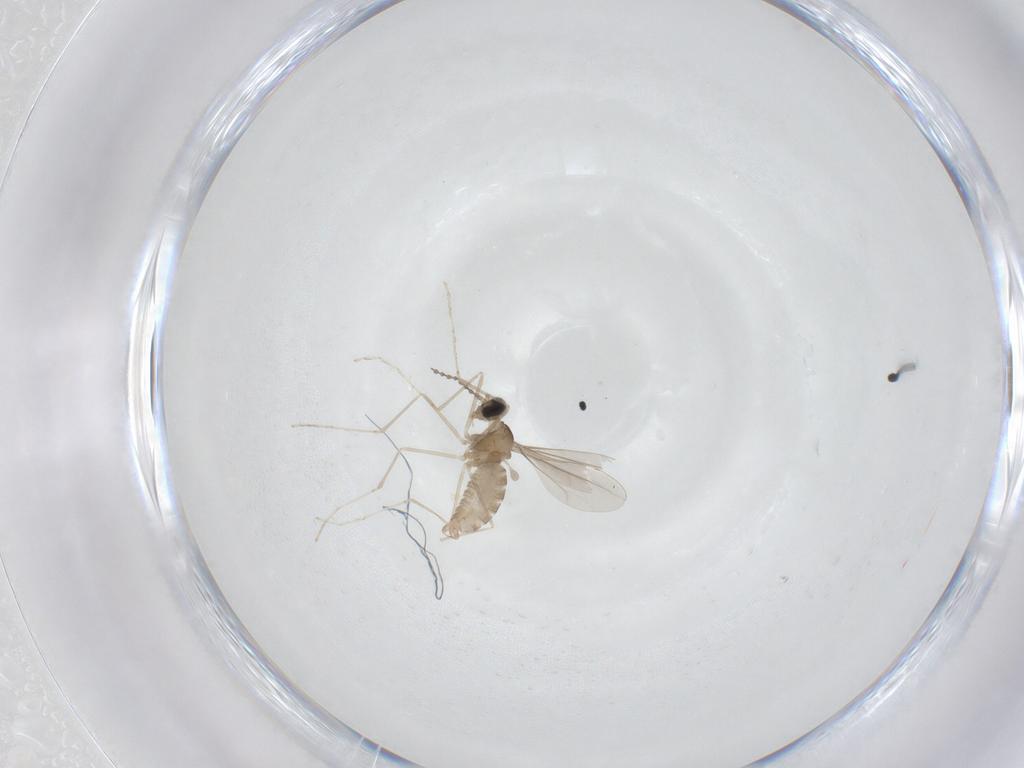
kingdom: Animalia
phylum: Arthropoda
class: Insecta
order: Diptera
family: Cecidomyiidae
